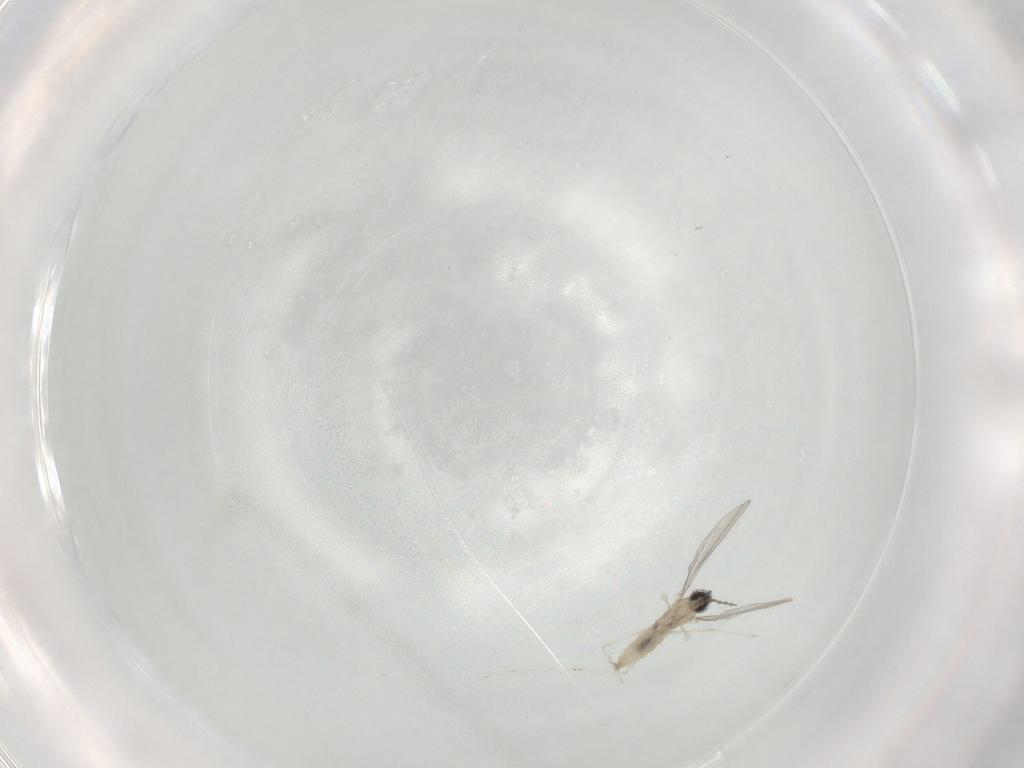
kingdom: Animalia
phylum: Arthropoda
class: Insecta
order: Diptera
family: Cecidomyiidae
